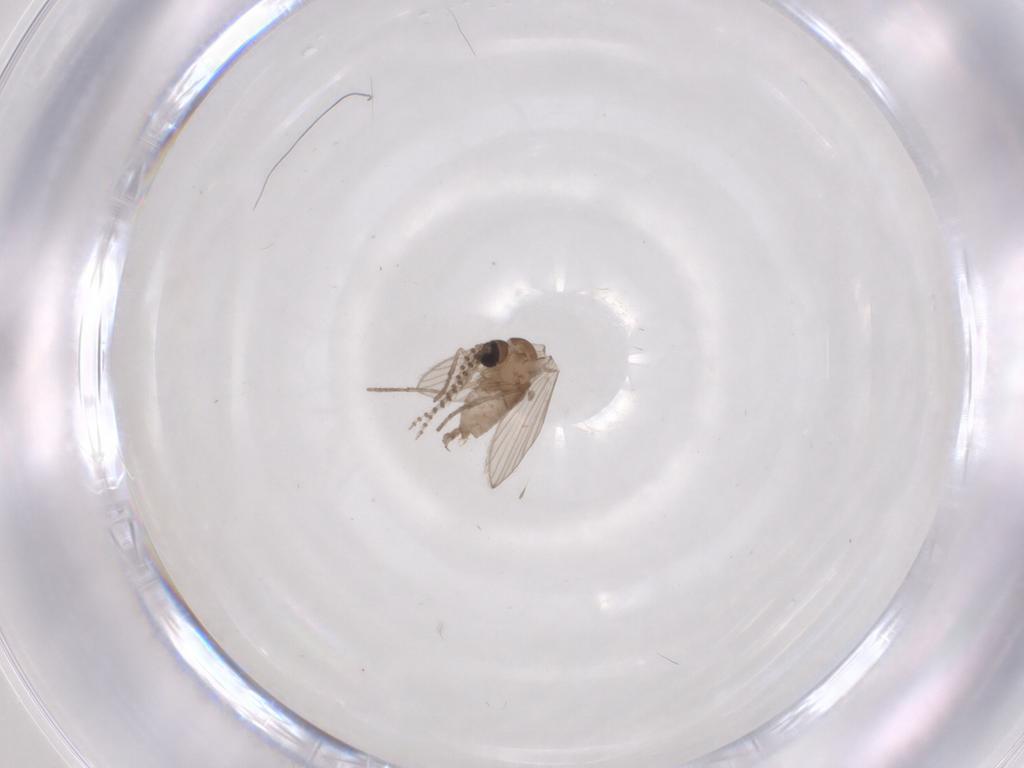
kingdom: Animalia
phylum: Arthropoda
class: Insecta
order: Diptera
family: Psychodidae
